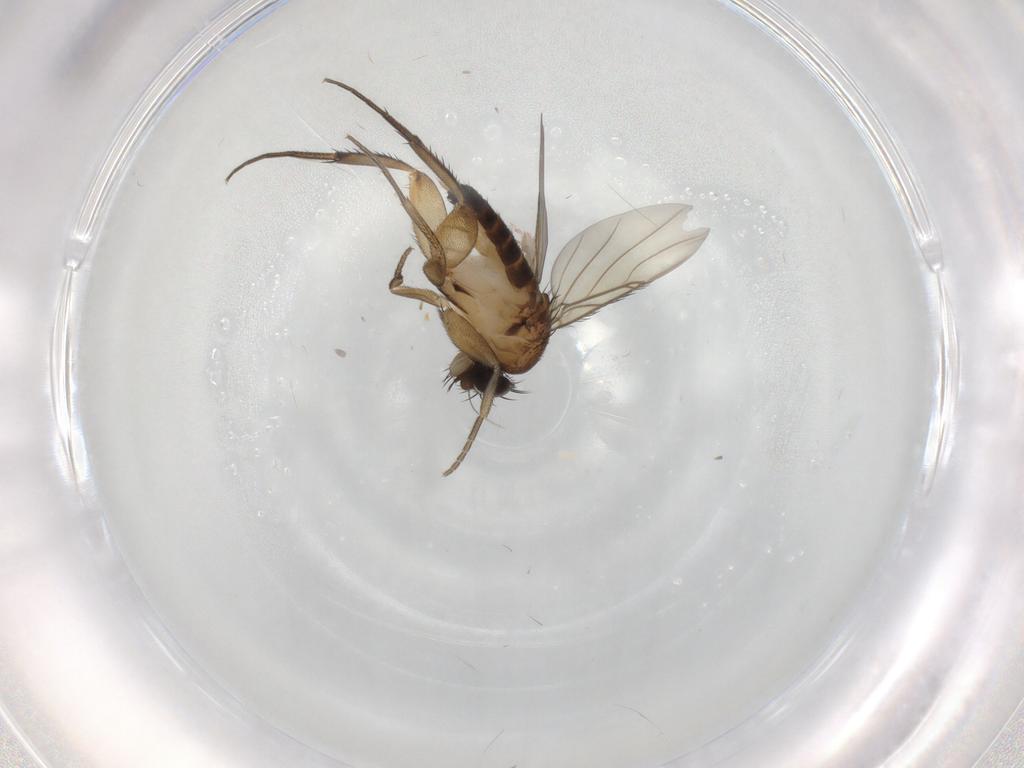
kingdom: Animalia
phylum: Arthropoda
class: Insecta
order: Diptera
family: Phoridae
